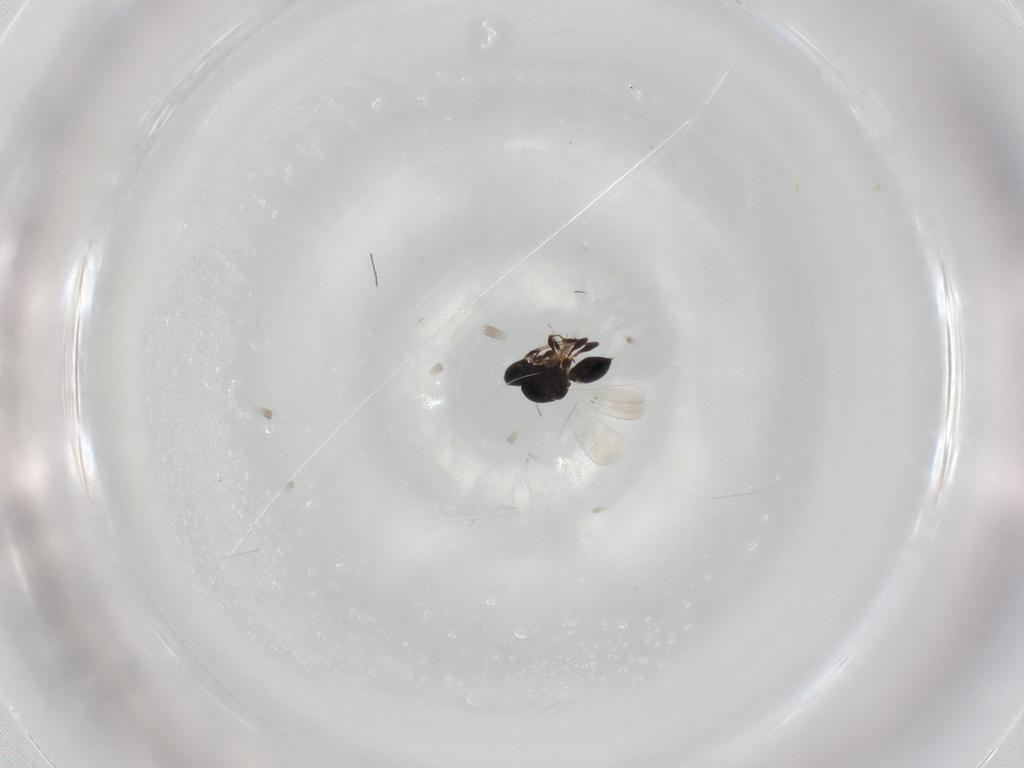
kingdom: Animalia
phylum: Arthropoda
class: Insecta
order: Hymenoptera
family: Platygastridae
